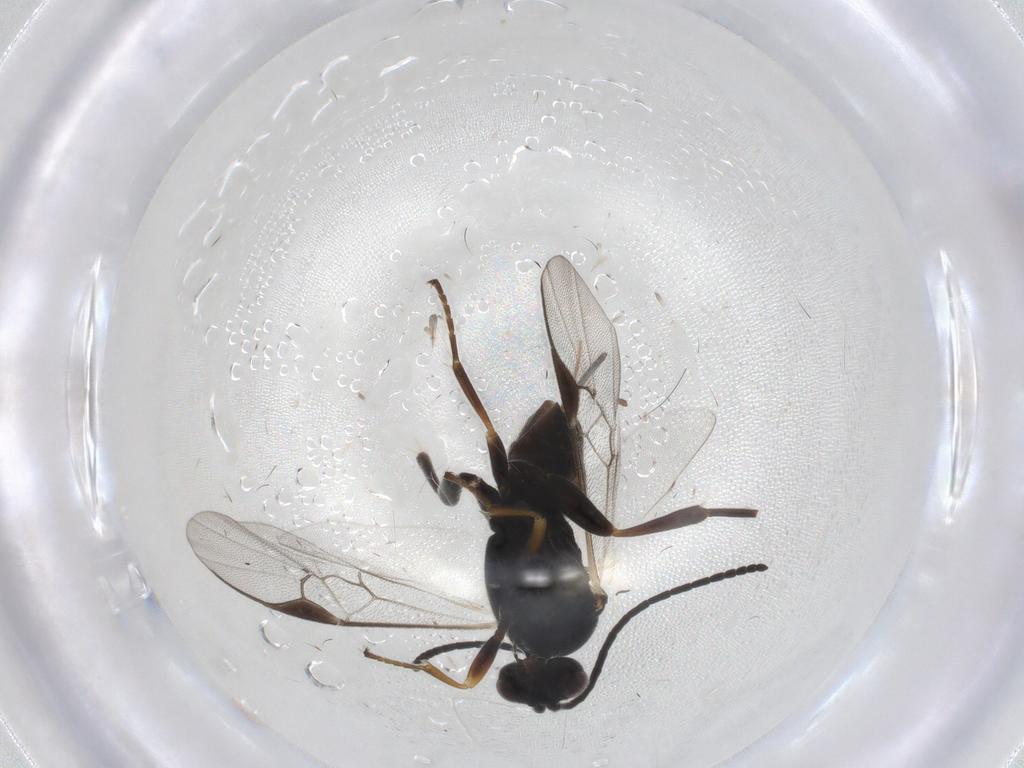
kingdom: Animalia
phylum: Arthropoda
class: Insecta
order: Hymenoptera
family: Braconidae
